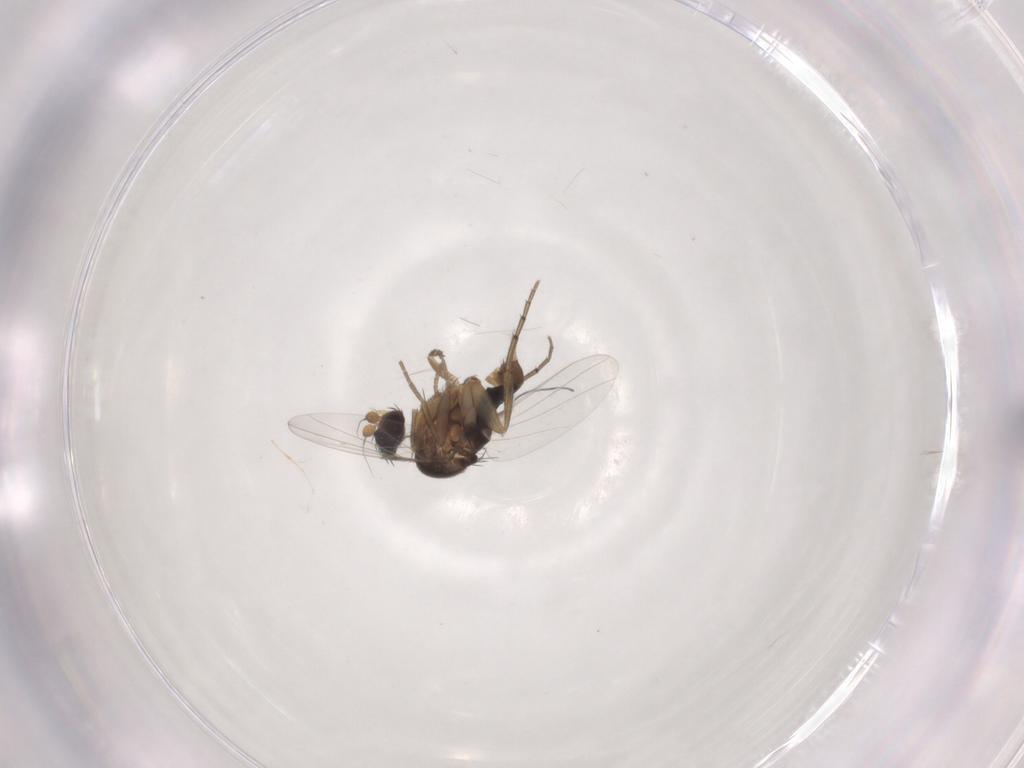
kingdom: Animalia
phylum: Arthropoda
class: Insecta
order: Diptera
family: Phoridae
